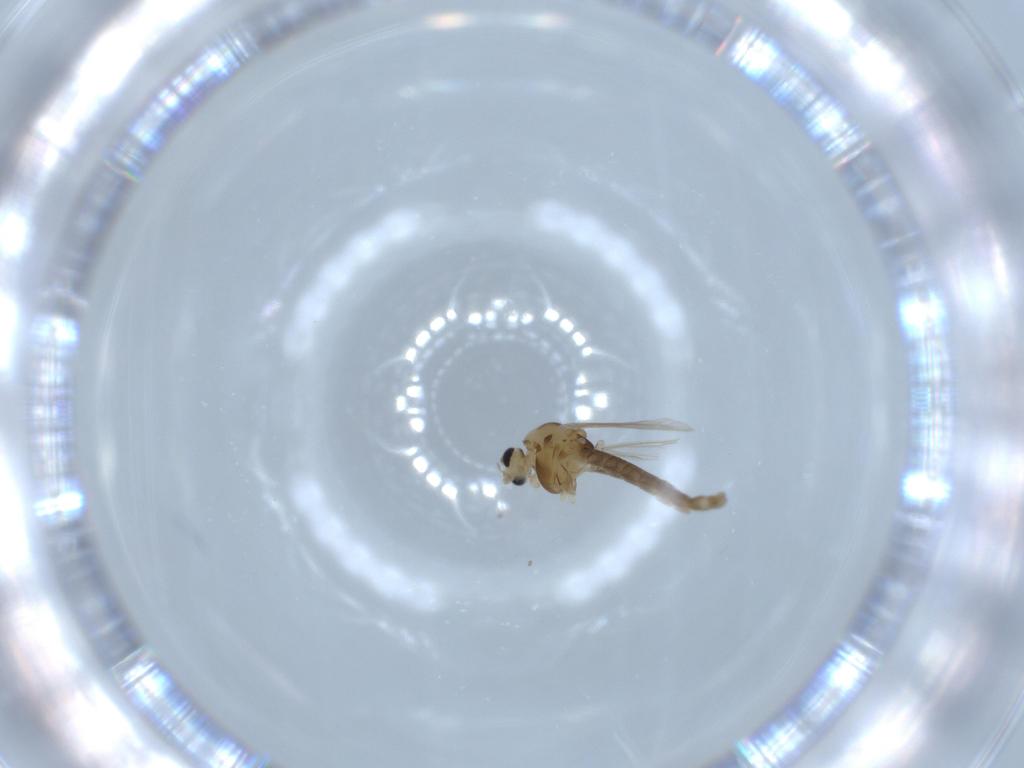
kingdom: Animalia
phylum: Arthropoda
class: Insecta
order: Diptera
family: Chironomidae
